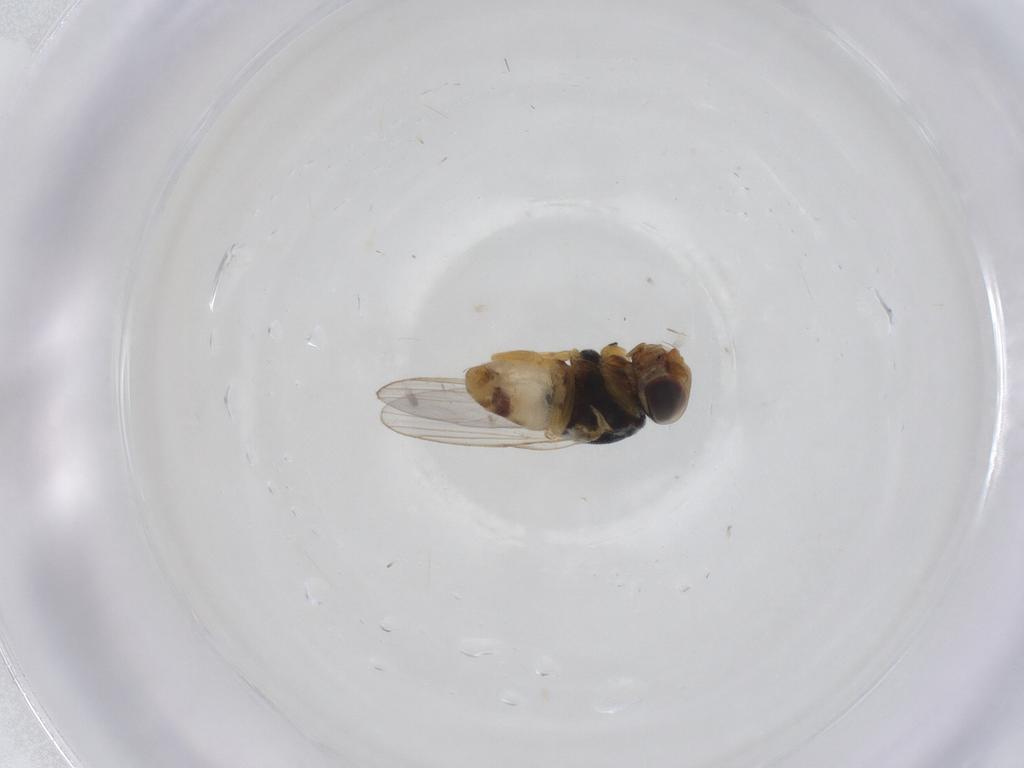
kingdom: Animalia
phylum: Arthropoda
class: Insecta
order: Diptera
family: Chloropidae
